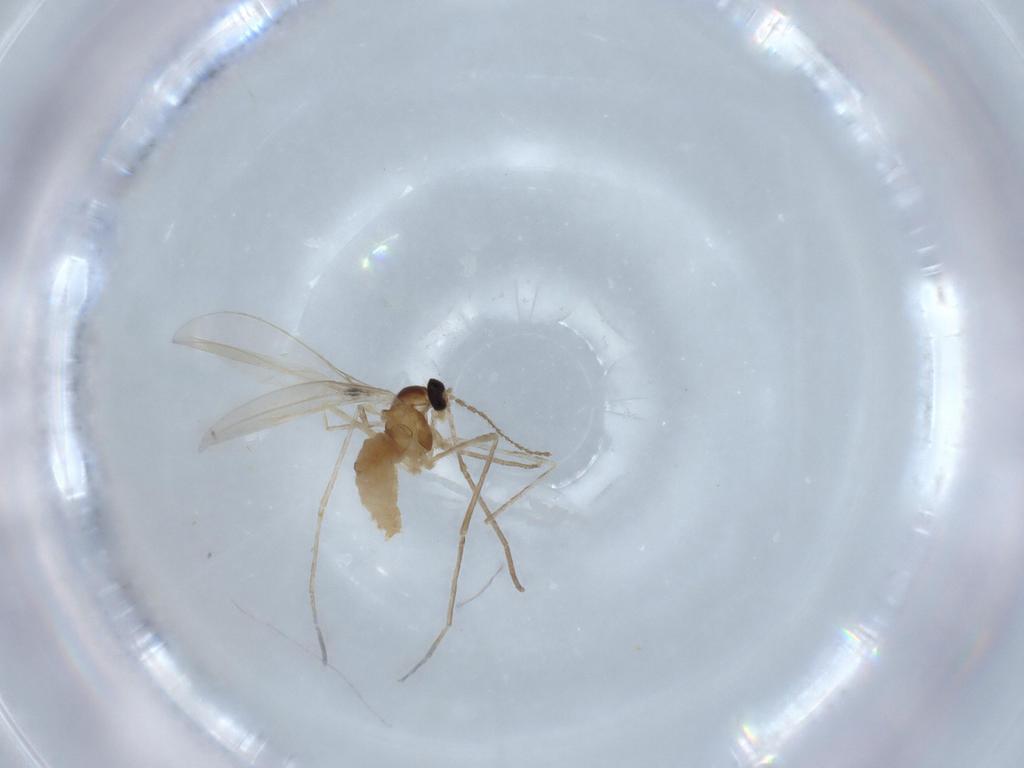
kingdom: Animalia
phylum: Arthropoda
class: Insecta
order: Diptera
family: Cecidomyiidae
